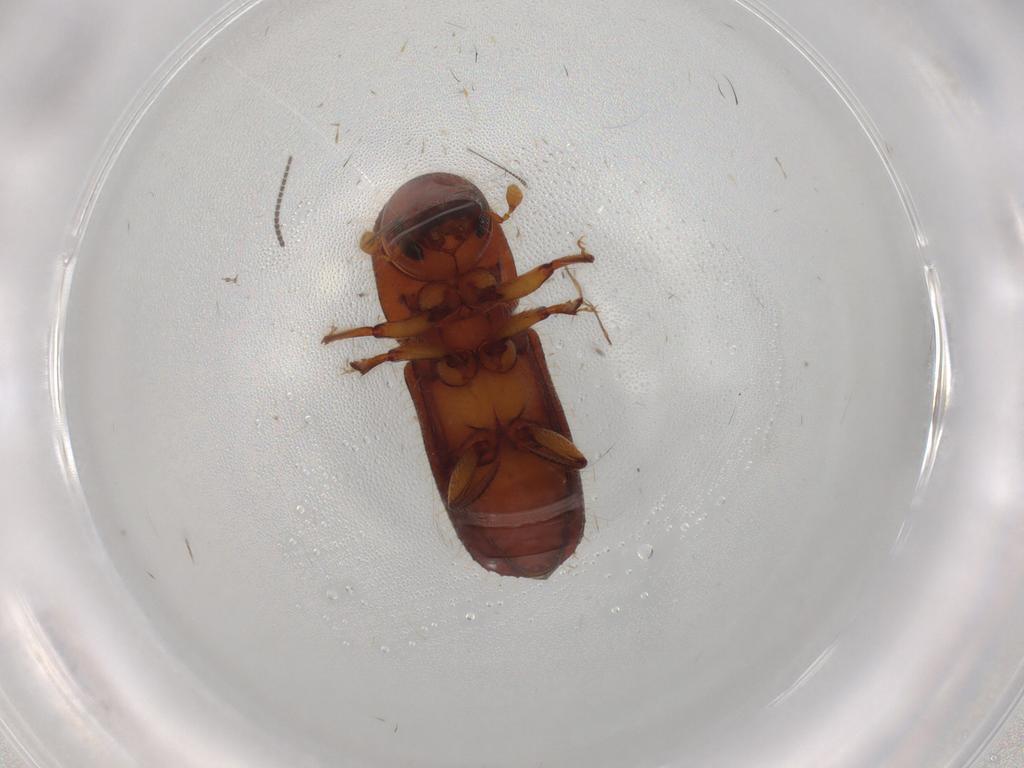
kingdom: Animalia
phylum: Arthropoda
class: Insecta
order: Coleoptera
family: Curculionidae
